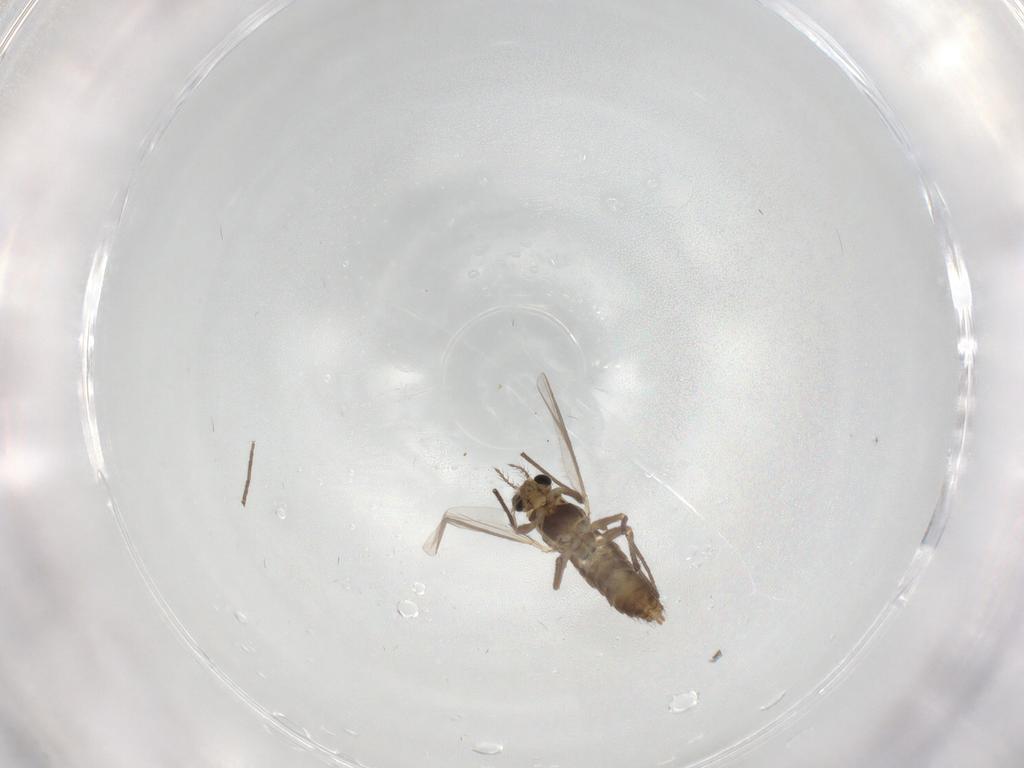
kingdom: Animalia
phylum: Arthropoda
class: Insecta
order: Diptera
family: Chironomidae
